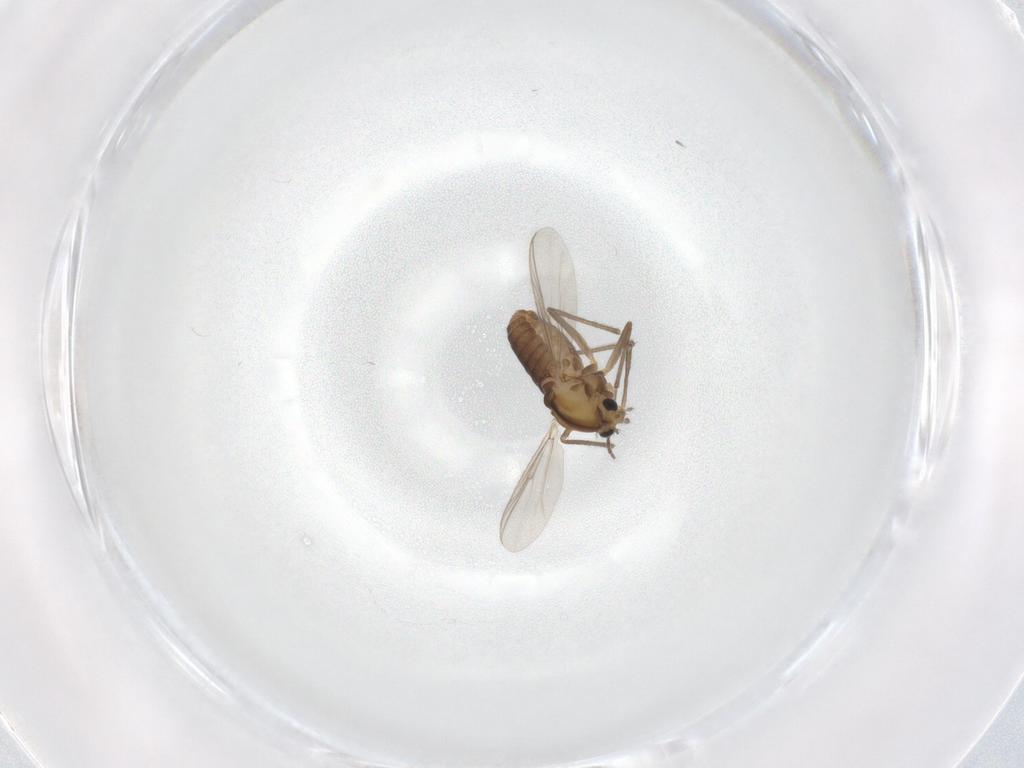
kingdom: Animalia
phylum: Arthropoda
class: Insecta
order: Diptera
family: Chironomidae
